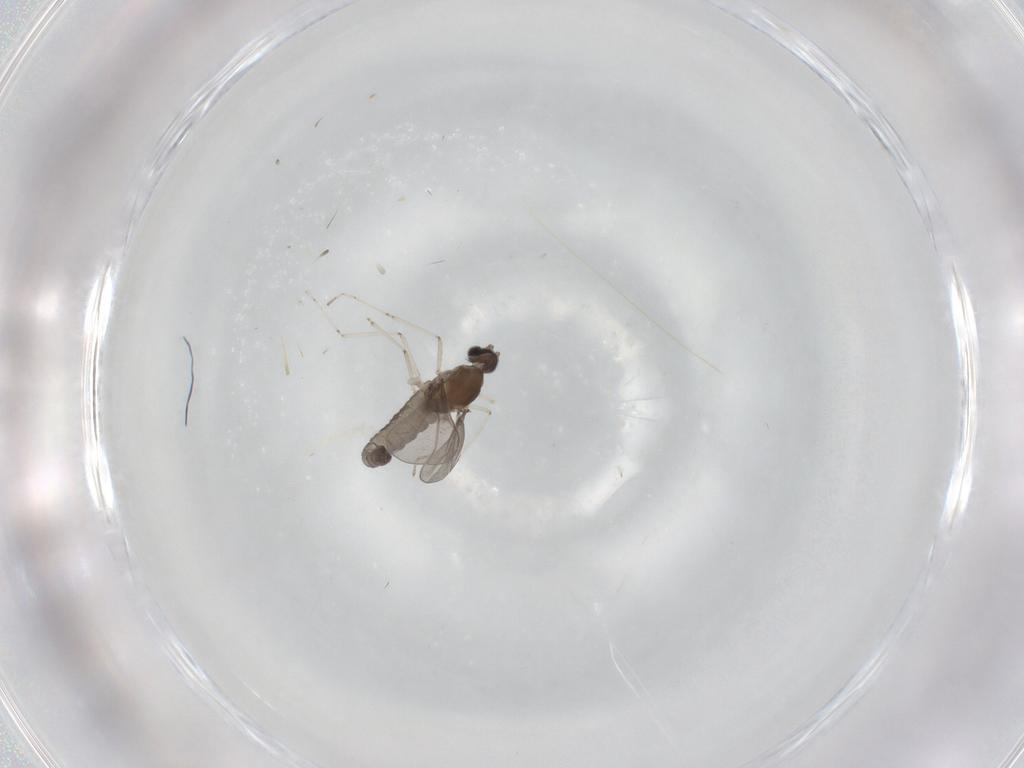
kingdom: Animalia
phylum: Arthropoda
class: Insecta
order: Diptera
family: Cecidomyiidae
